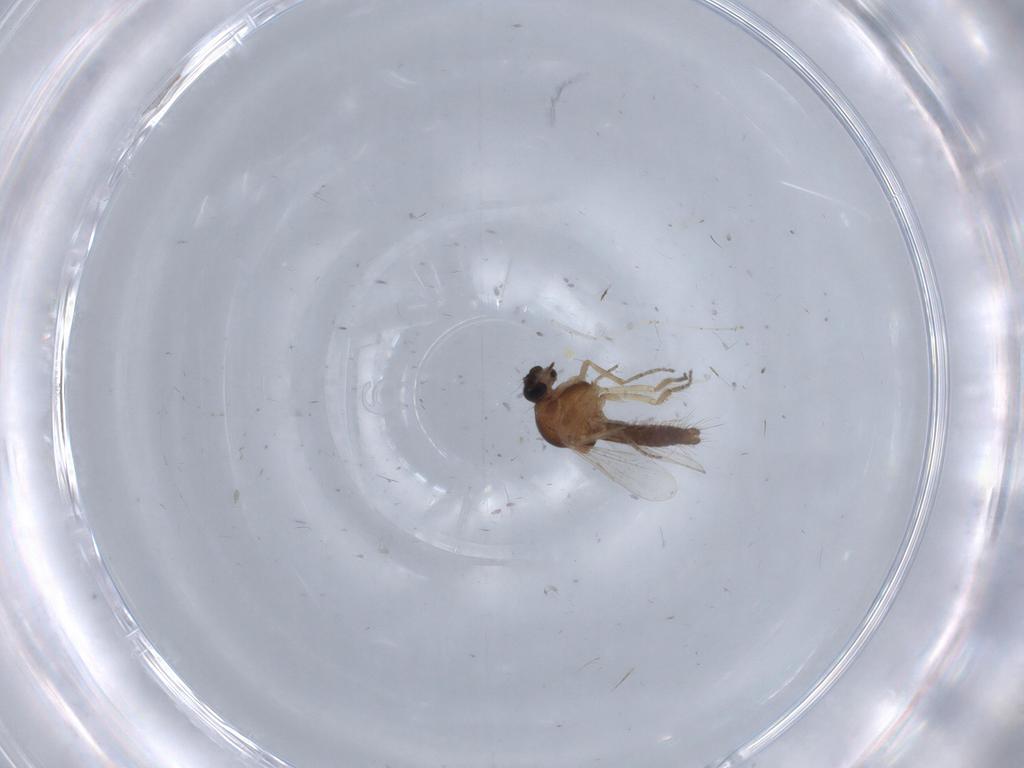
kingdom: Animalia
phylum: Arthropoda
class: Insecta
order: Diptera
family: Ceratopogonidae
